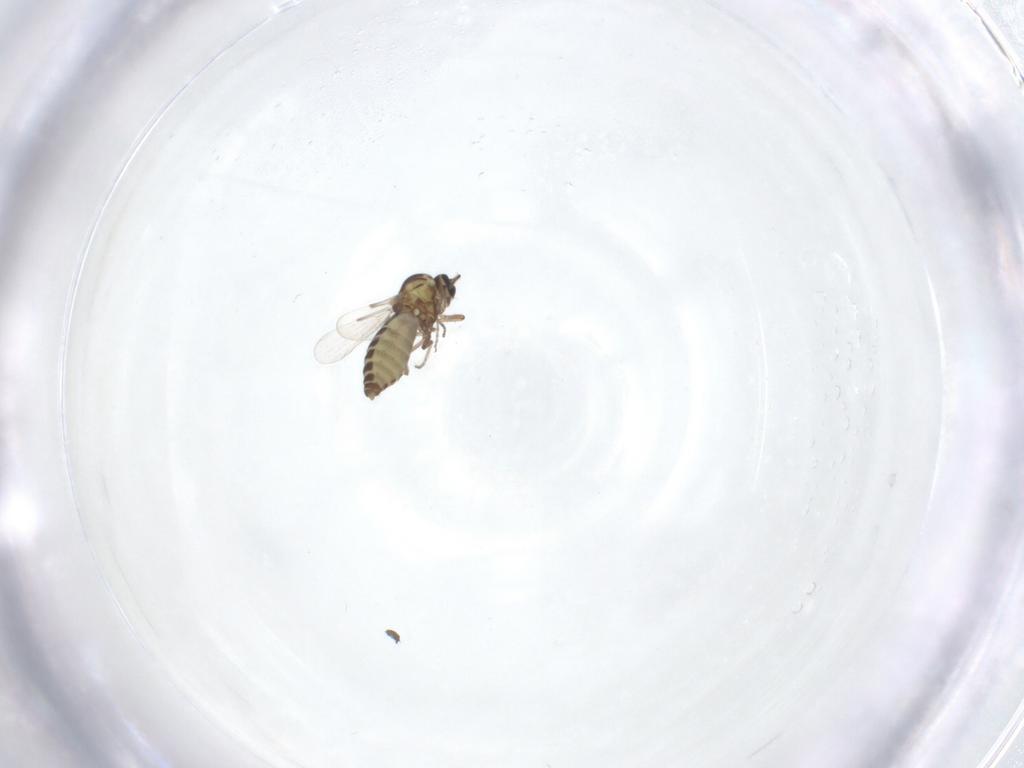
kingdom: Animalia
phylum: Arthropoda
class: Insecta
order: Diptera
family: Ceratopogonidae
